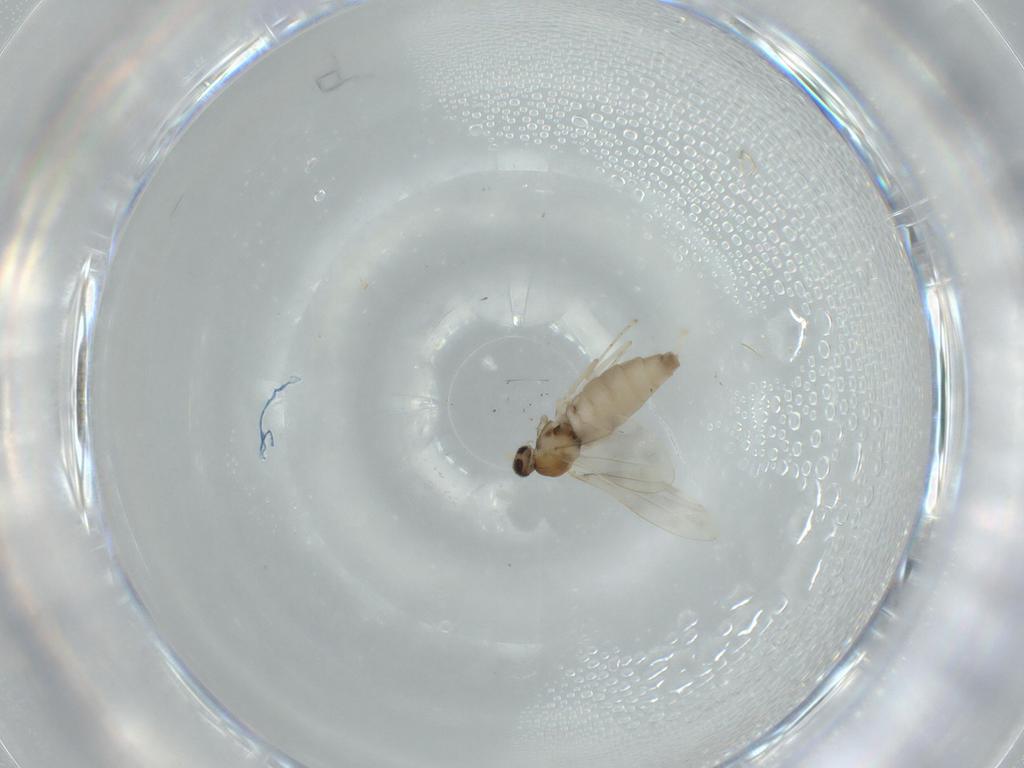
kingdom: Animalia
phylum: Arthropoda
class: Insecta
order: Diptera
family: Cecidomyiidae
